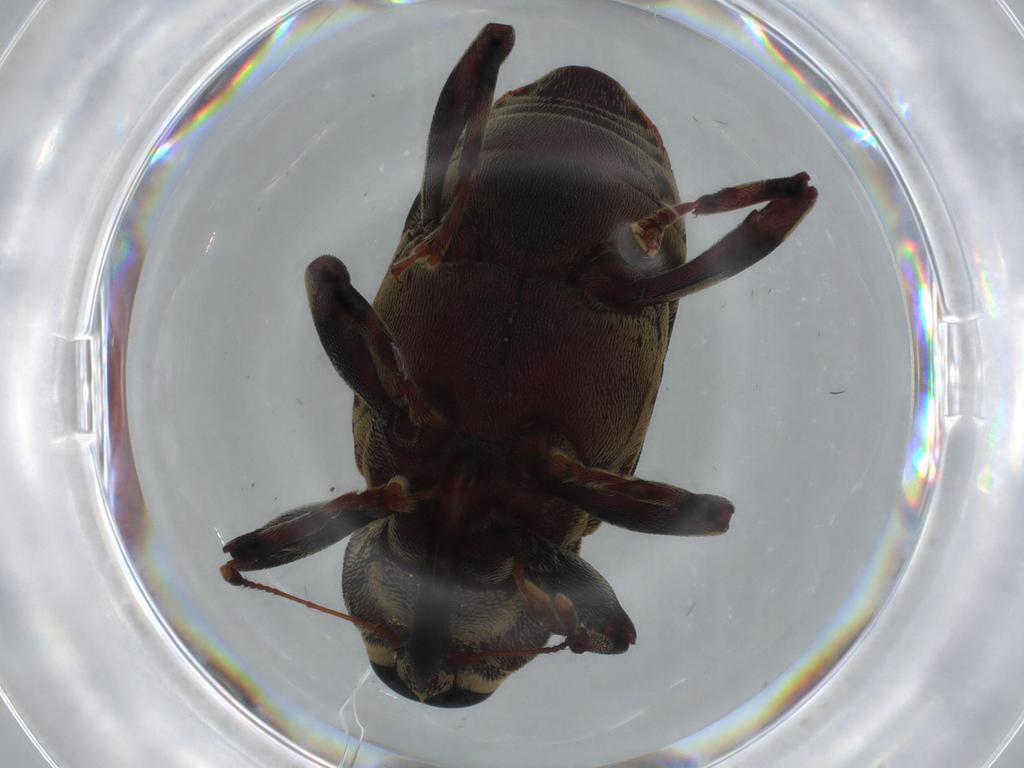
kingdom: Animalia
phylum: Arthropoda
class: Insecta
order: Coleoptera
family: Curculionidae
